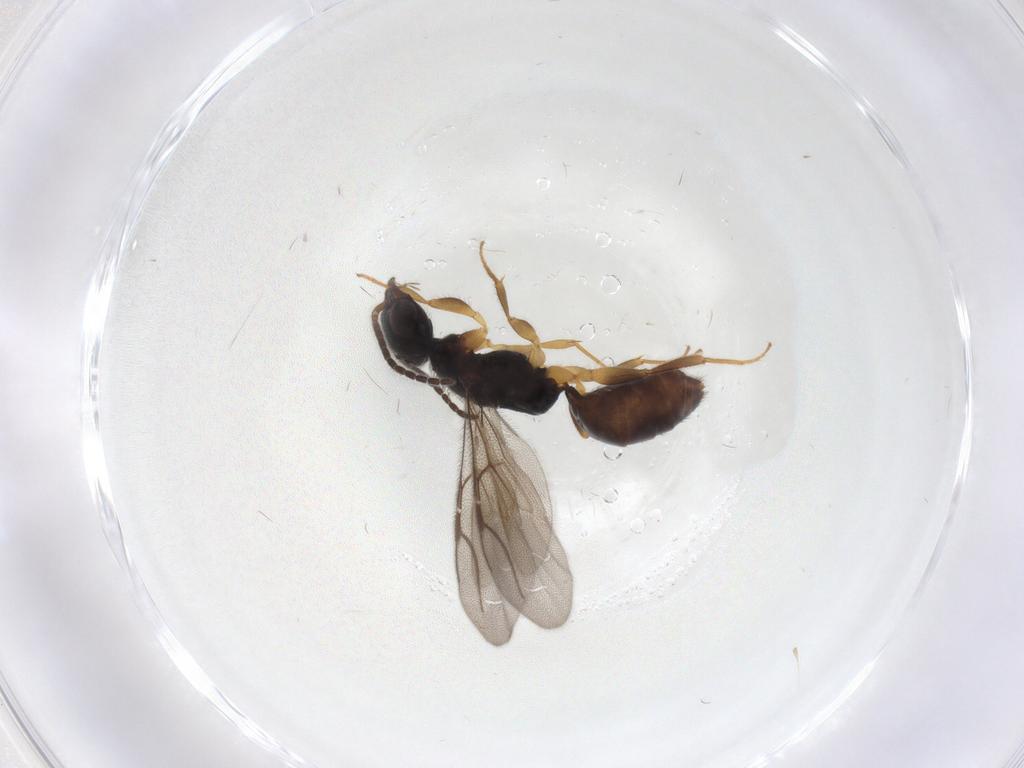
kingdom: Animalia
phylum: Arthropoda
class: Insecta
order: Hymenoptera
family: Bethylidae
